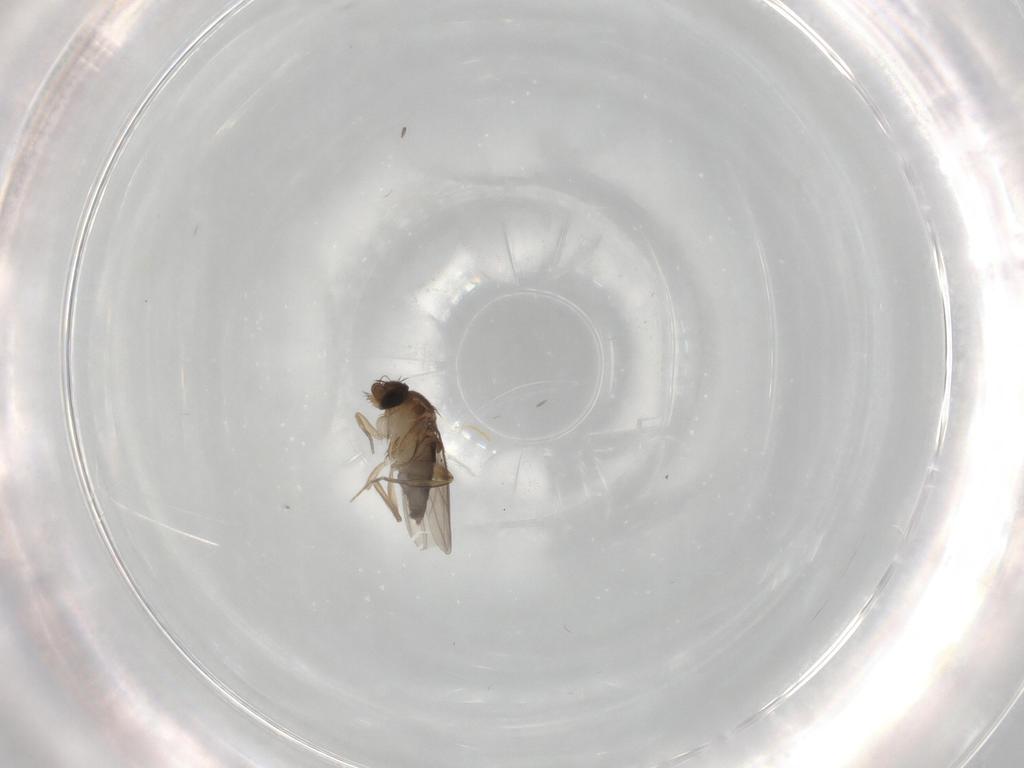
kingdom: Animalia
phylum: Arthropoda
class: Insecta
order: Diptera
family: Phoridae
